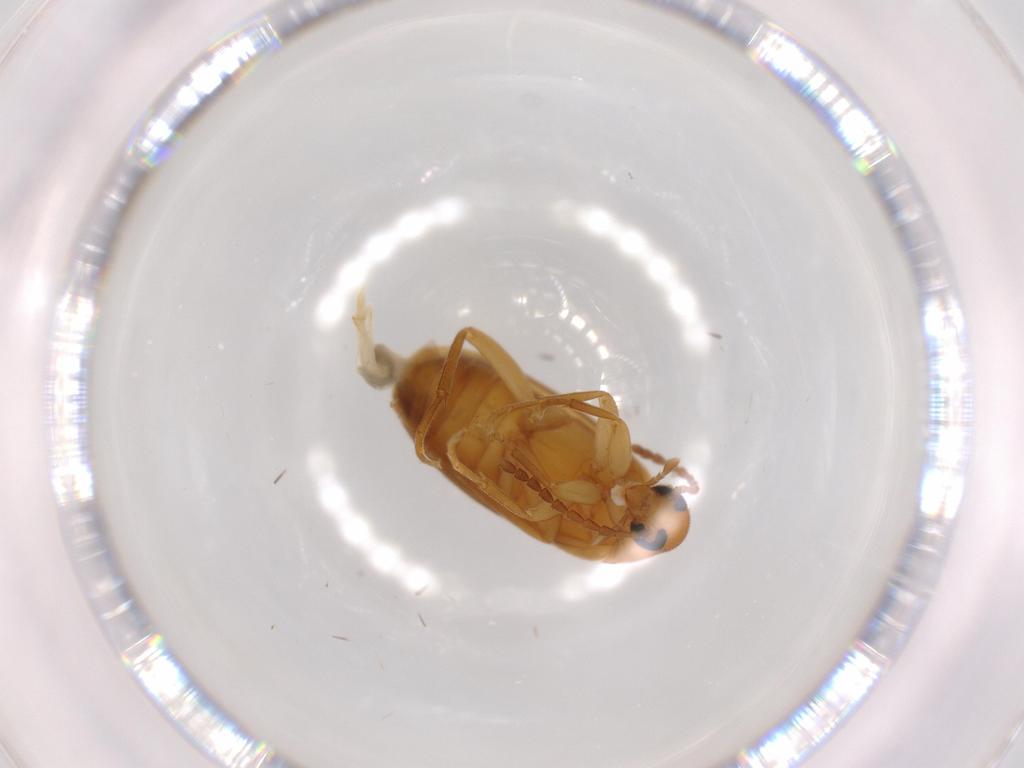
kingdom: Animalia
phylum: Arthropoda
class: Insecta
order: Coleoptera
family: Scraptiidae
